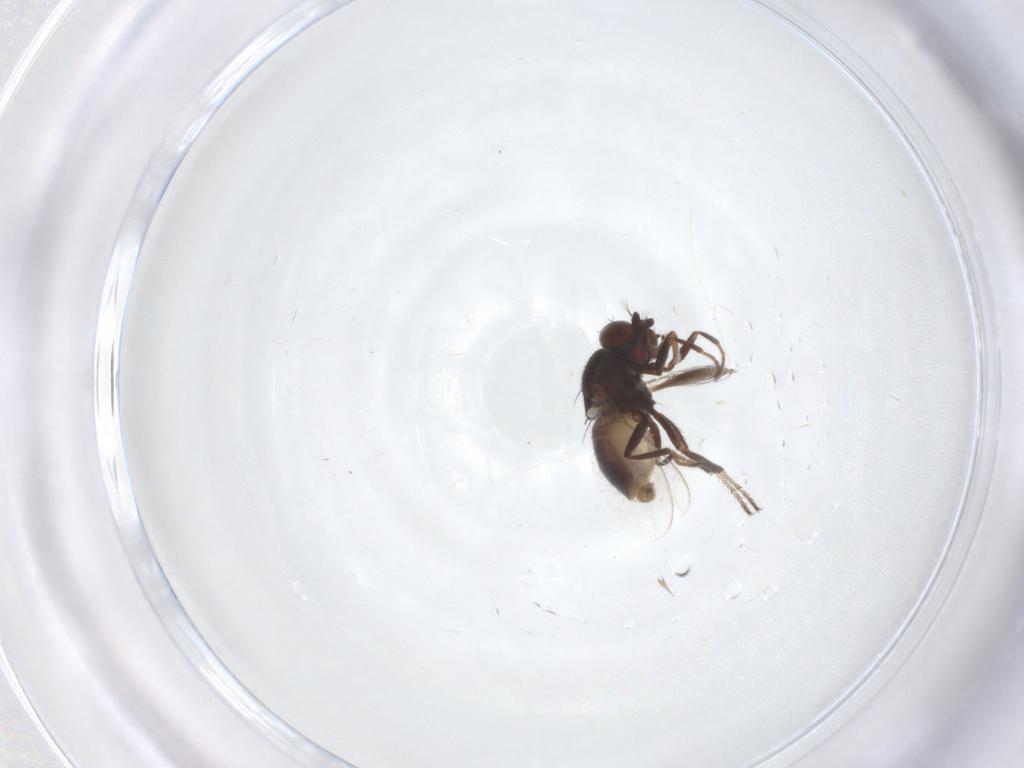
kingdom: Animalia
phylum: Arthropoda
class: Insecta
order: Diptera
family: Ephydridae
